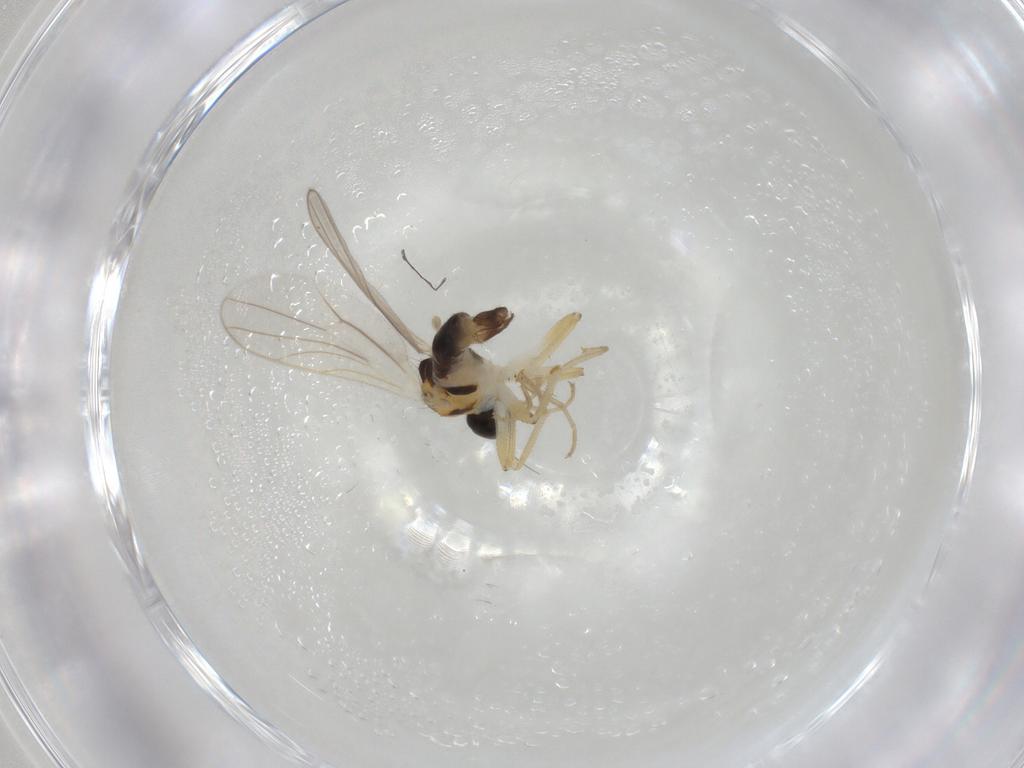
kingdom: Animalia
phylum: Arthropoda
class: Insecta
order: Diptera
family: Hybotidae
